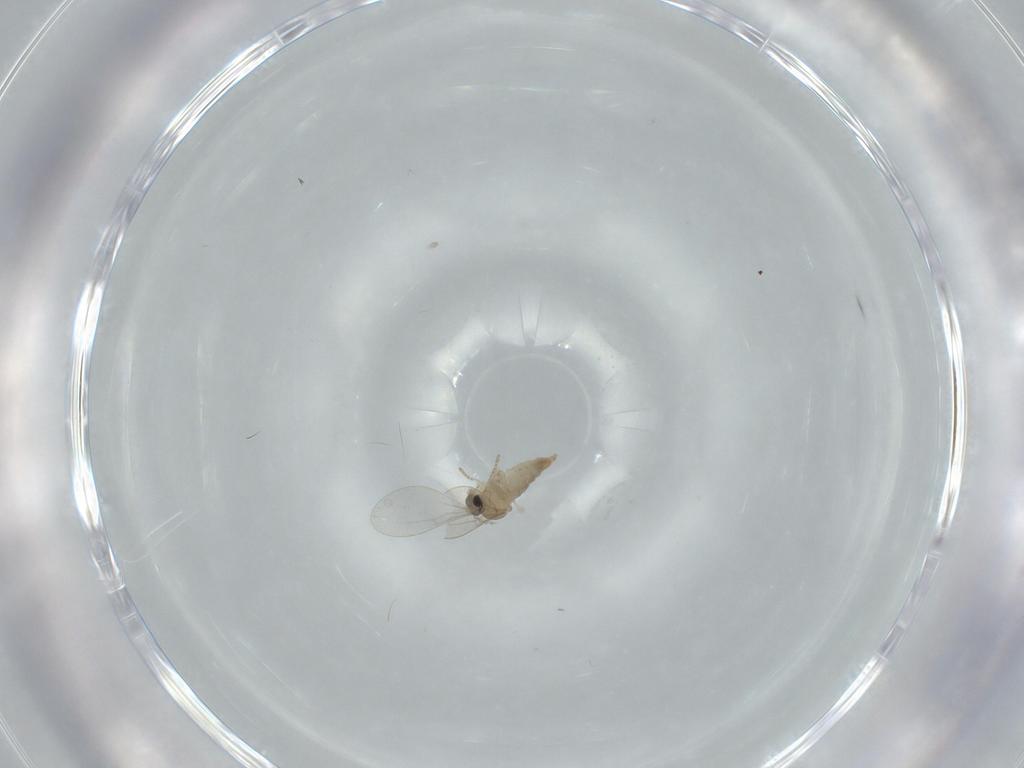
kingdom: Animalia
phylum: Arthropoda
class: Insecta
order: Diptera
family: Cecidomyiidae
